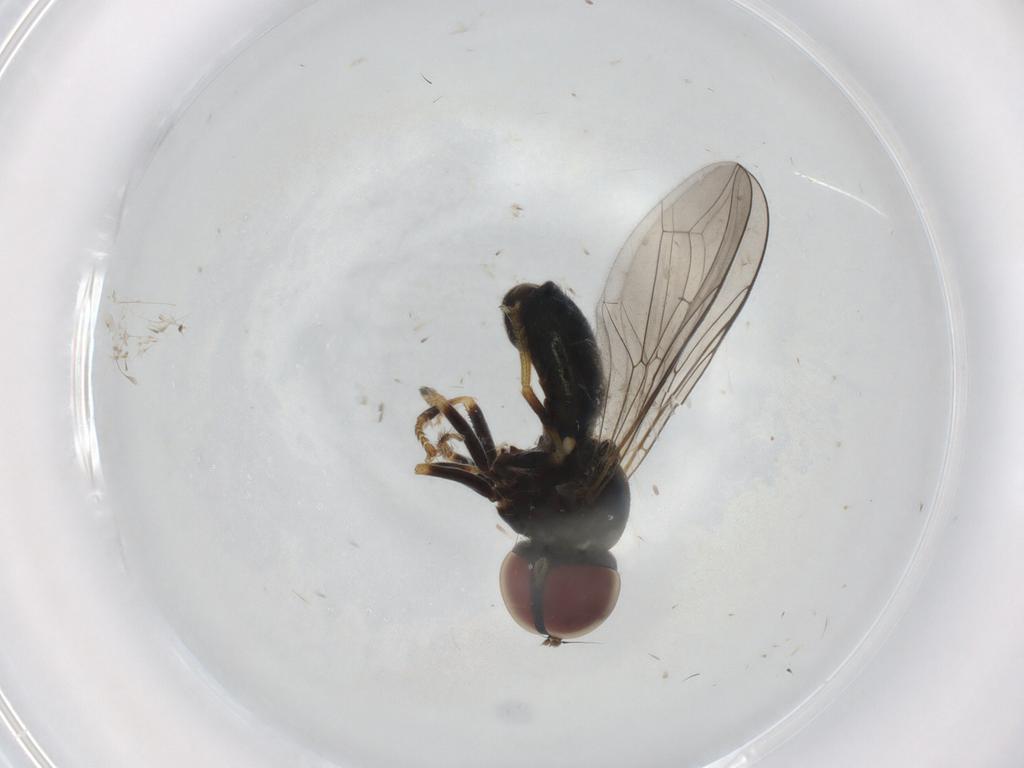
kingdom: Animalia
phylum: Arthropoda
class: Insecta
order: Diptera
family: Pipunculidae
